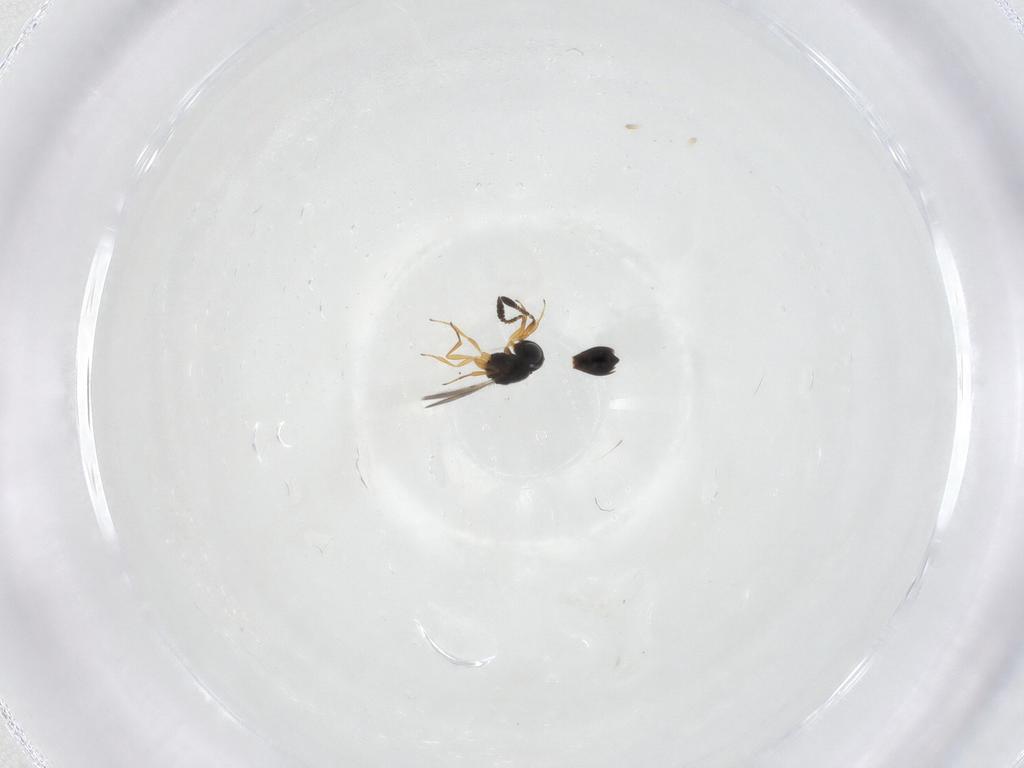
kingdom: Animalia
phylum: Arthropoda
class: Insecta
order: Hymenoptera
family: Scelionidae
